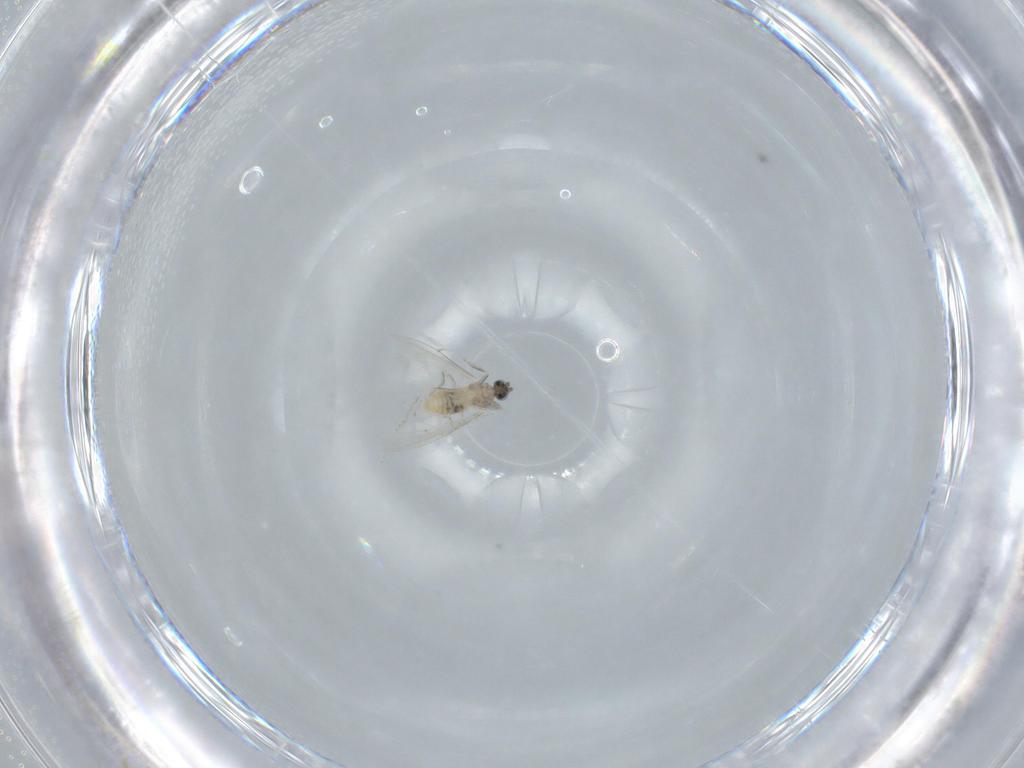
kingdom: Animalia
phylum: Arthropoda
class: Insecta
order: Diptera
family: Cecidomyiidae
